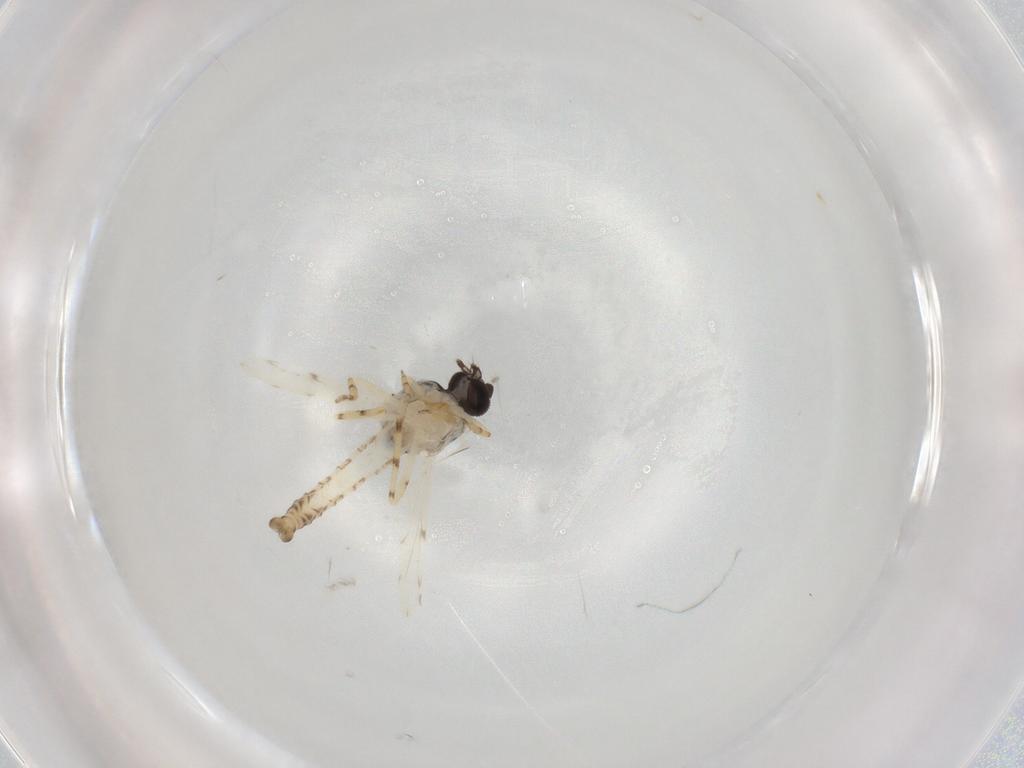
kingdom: Animalia
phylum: Arthropoda
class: Insecta
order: Diptera
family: Ceratopogonidae
